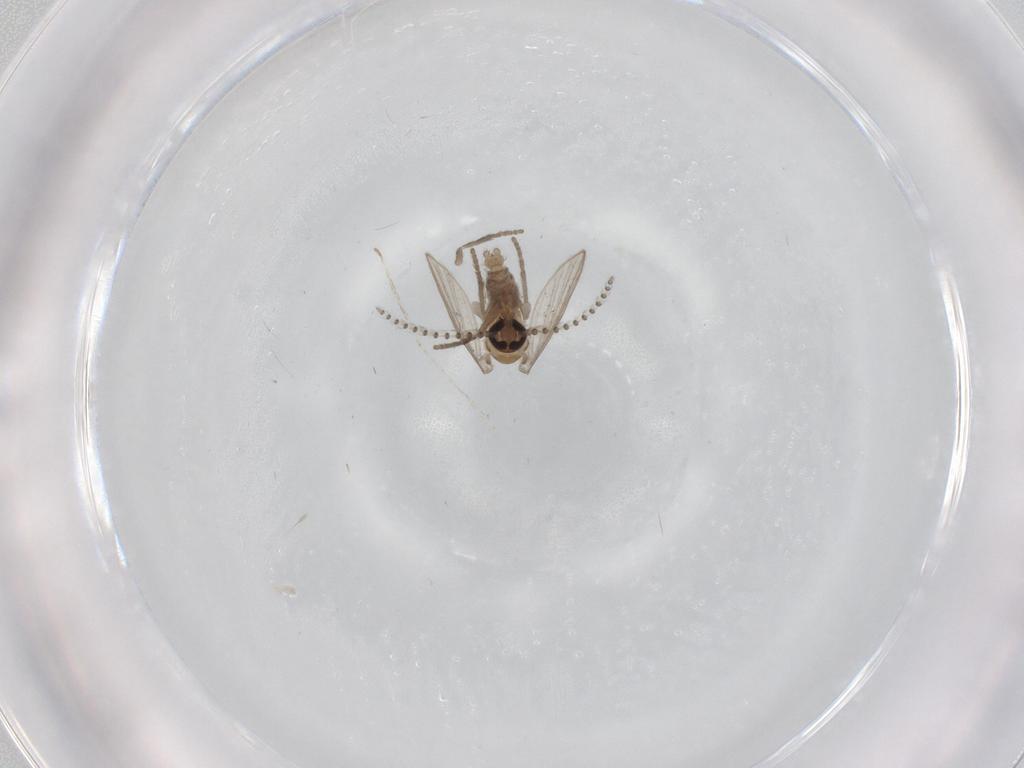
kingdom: Animalia
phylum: Arthropoda
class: Insecta
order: Diptera
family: Psychodidae
